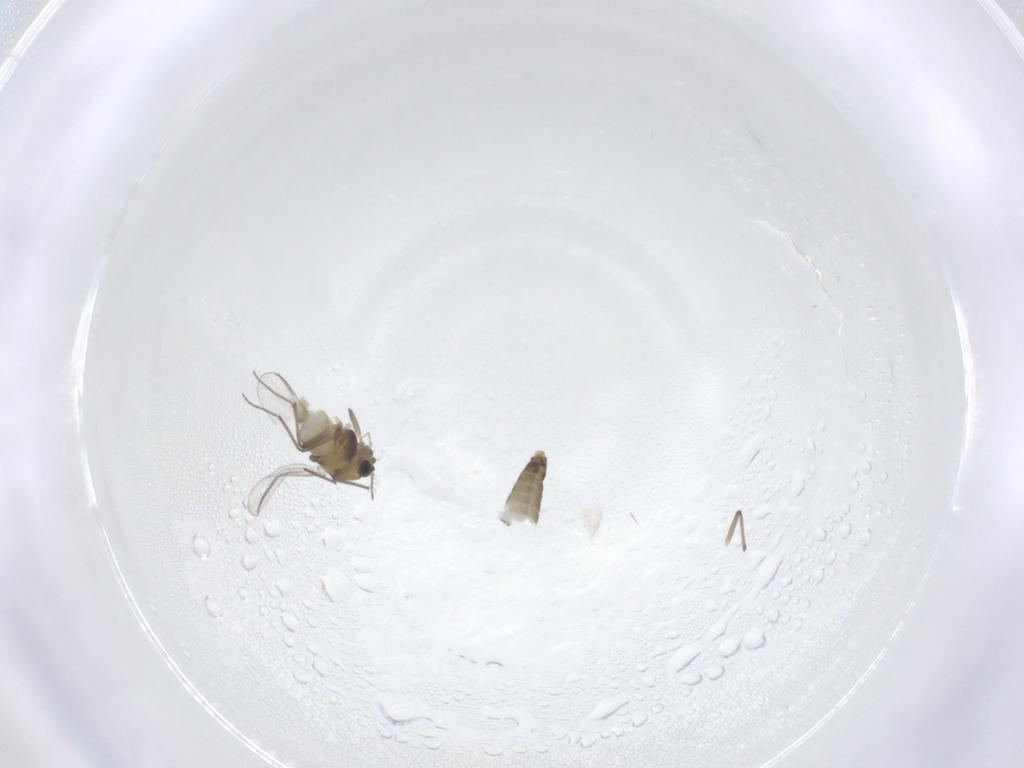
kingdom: Animalia
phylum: Arthropoda
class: Insecta
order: Diptera
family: Chironomidae
